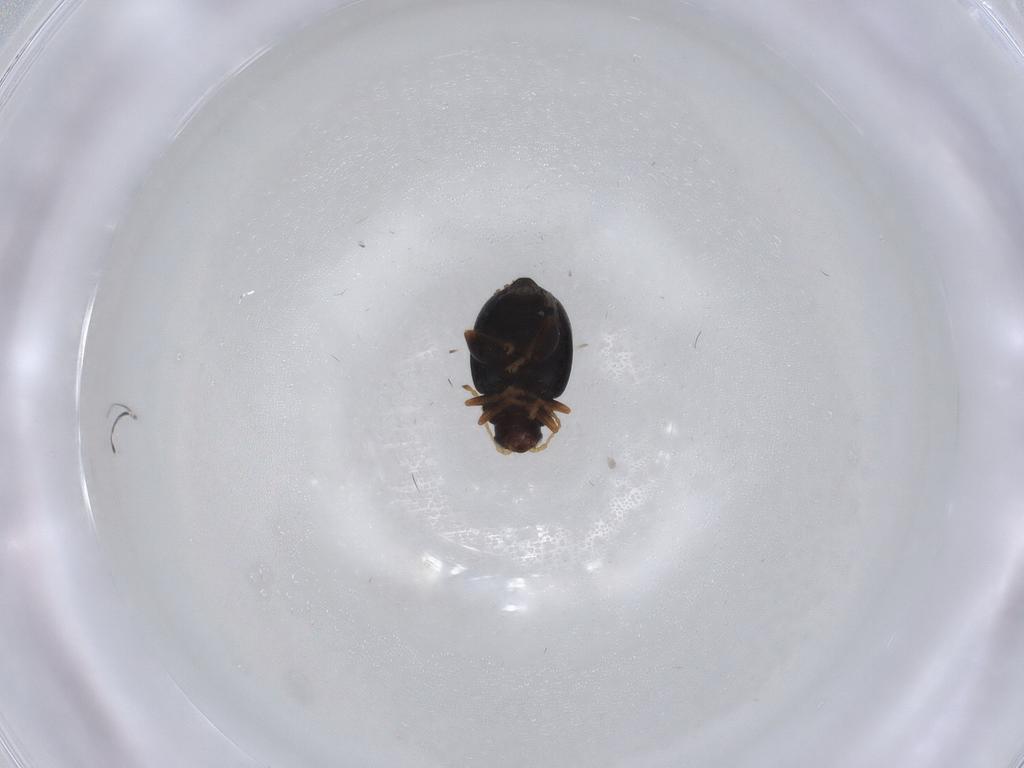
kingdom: Animalia
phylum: Arthropoda
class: Insecta
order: Coleoptera
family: Chrysomelidae
